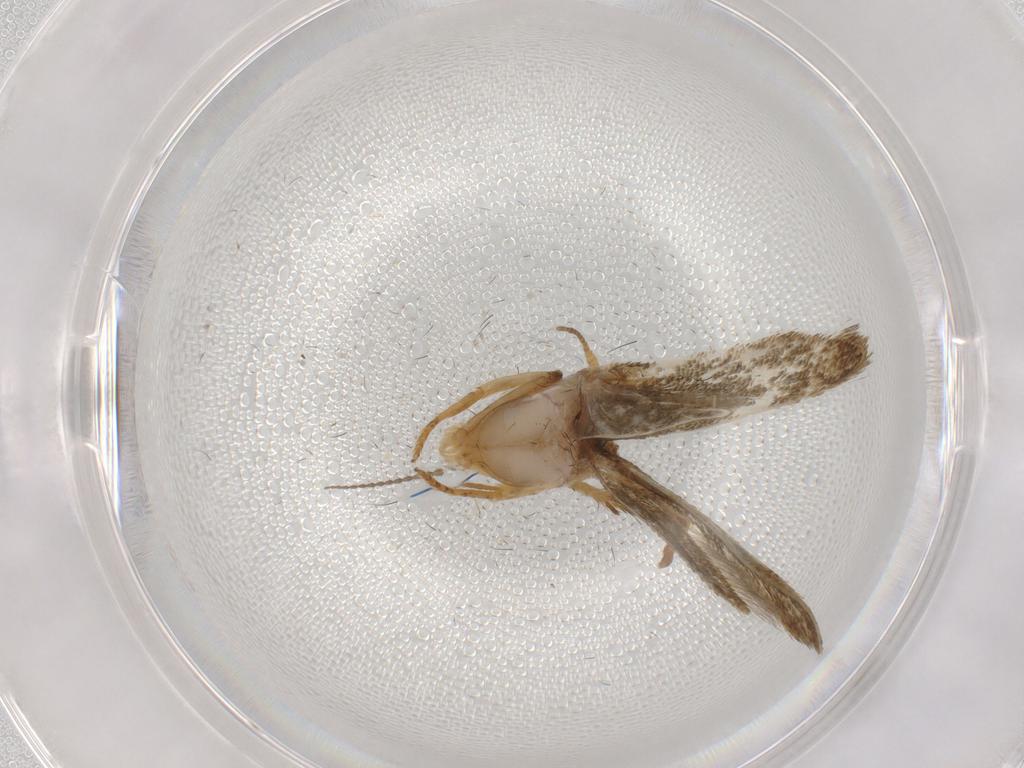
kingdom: Animalia
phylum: Arthropoda
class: Insecta
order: Lepidoptera
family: Blastobasidae
